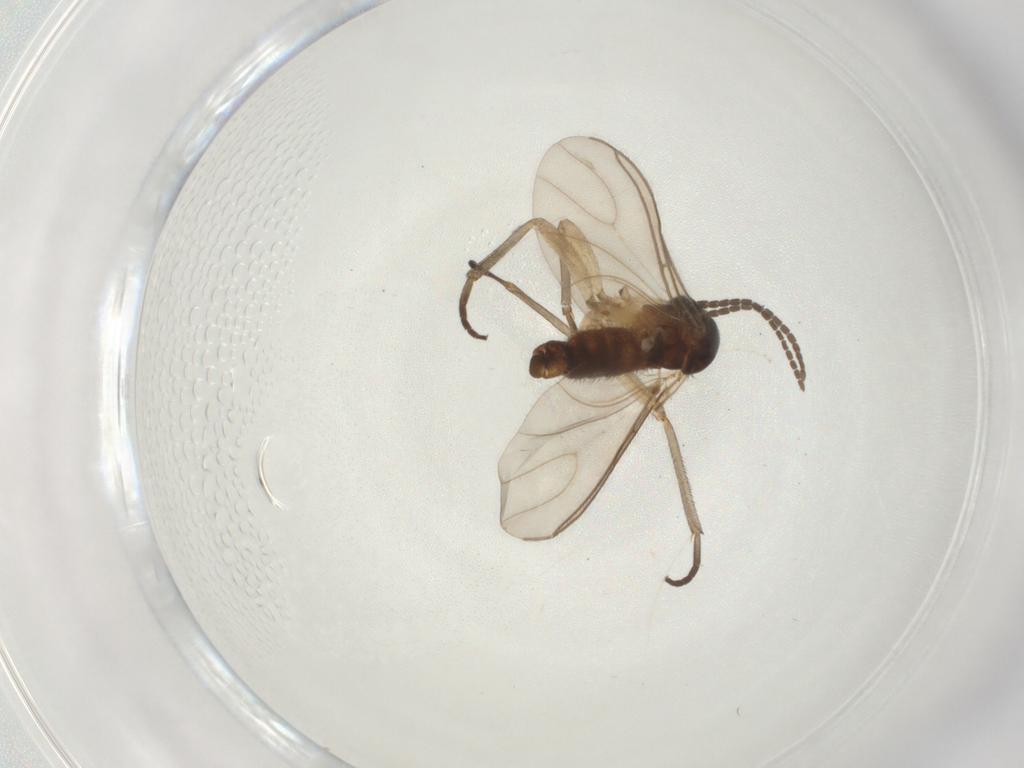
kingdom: Animalia
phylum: Arthropoda
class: Insecta
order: Diptera
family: Sciaridae
